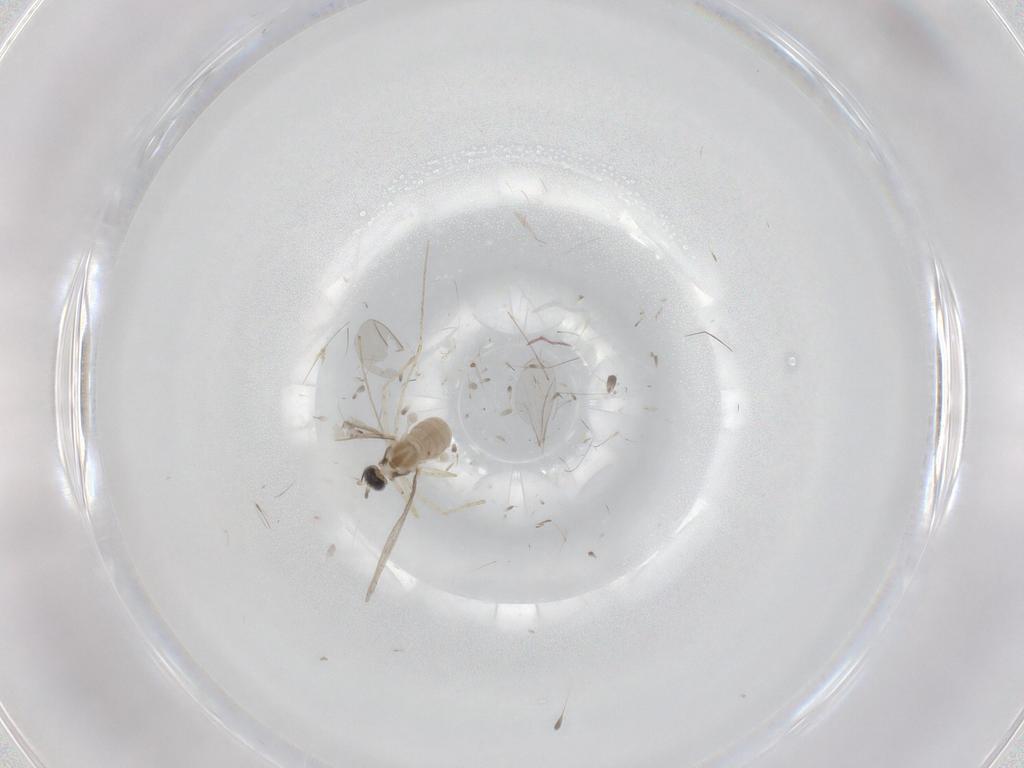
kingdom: Animalia
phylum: Arthropoda
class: Insecta
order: Diptera
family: Cecidomyiidae
